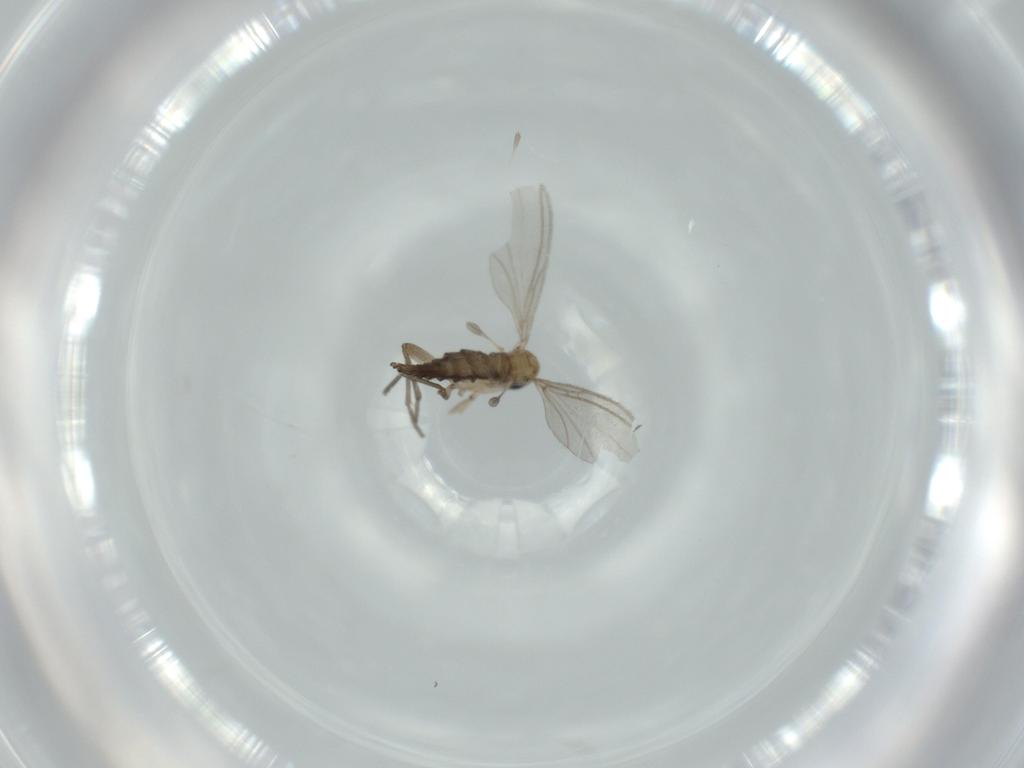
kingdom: Animalia
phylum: Arthropoda
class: Insecta
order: Diptera
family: Sciaridae
